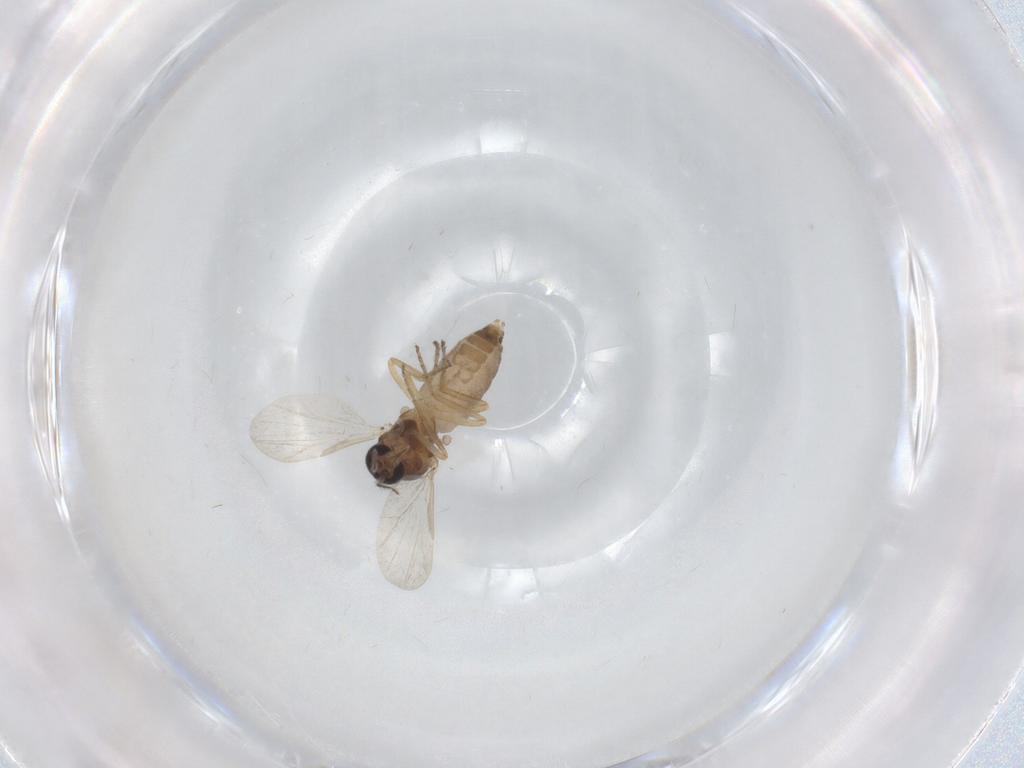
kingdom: Animalia
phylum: Arthropoda
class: Insecta
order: Diptera
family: Ceratopogonidae
